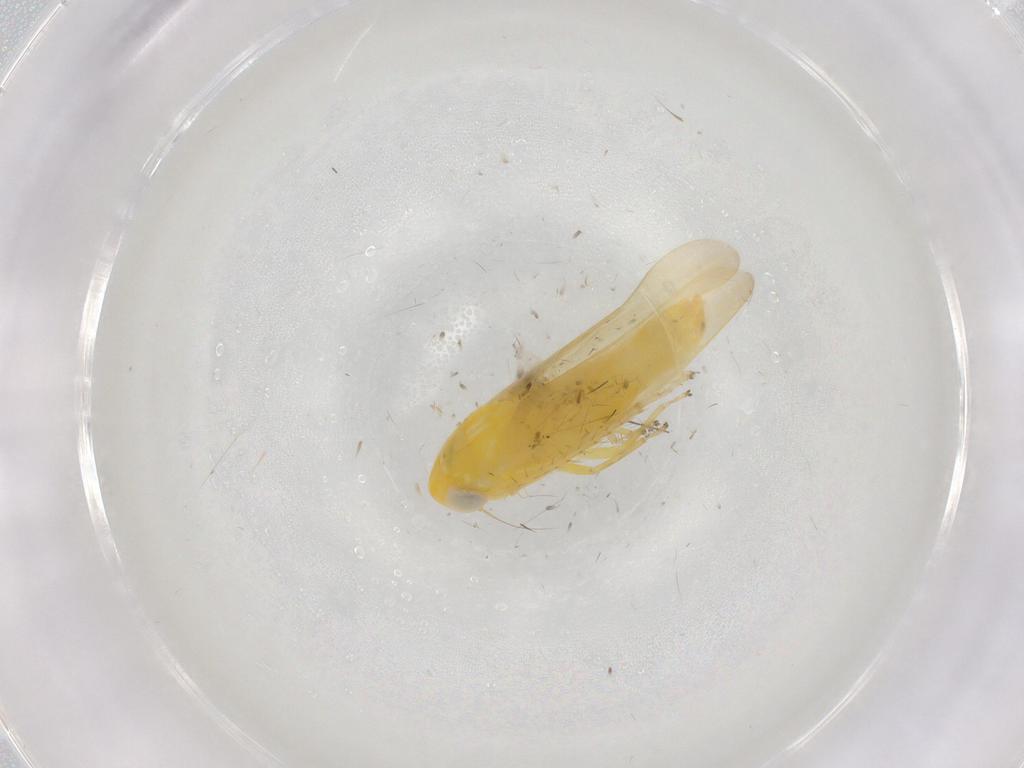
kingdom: Animalia
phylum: Arthropoda
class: Insecta
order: Hemiptera
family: Cicadellidae
